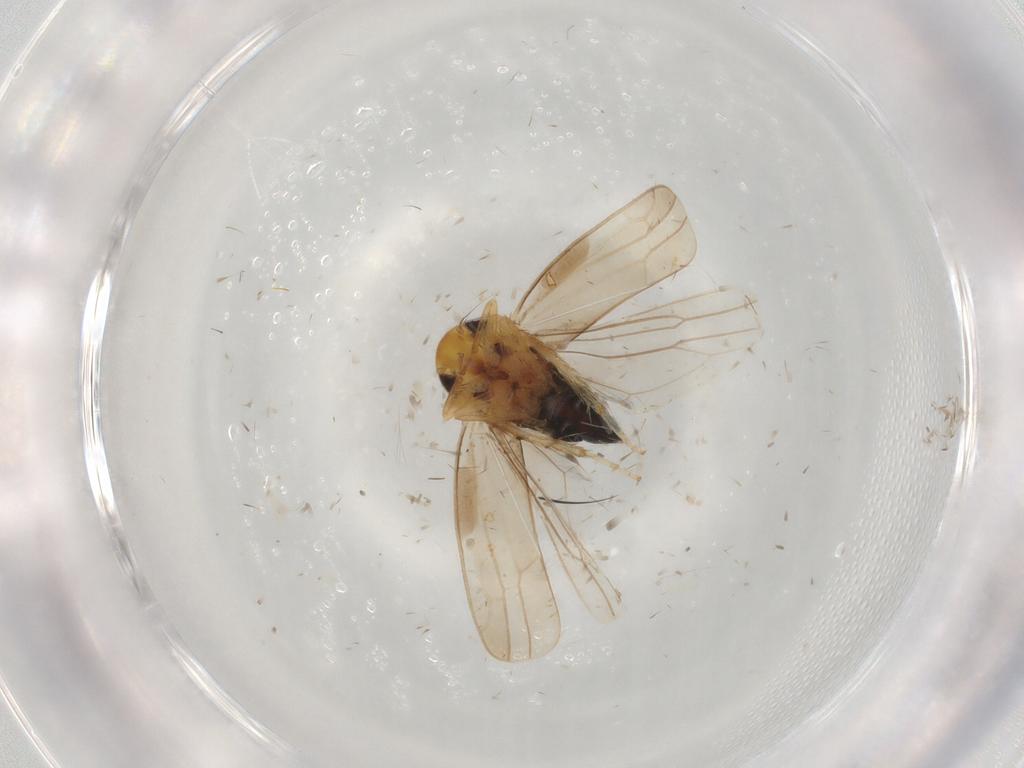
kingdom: Animalia
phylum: Arthropoda
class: Insecta
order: Hemiptera
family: Cicadellidae
